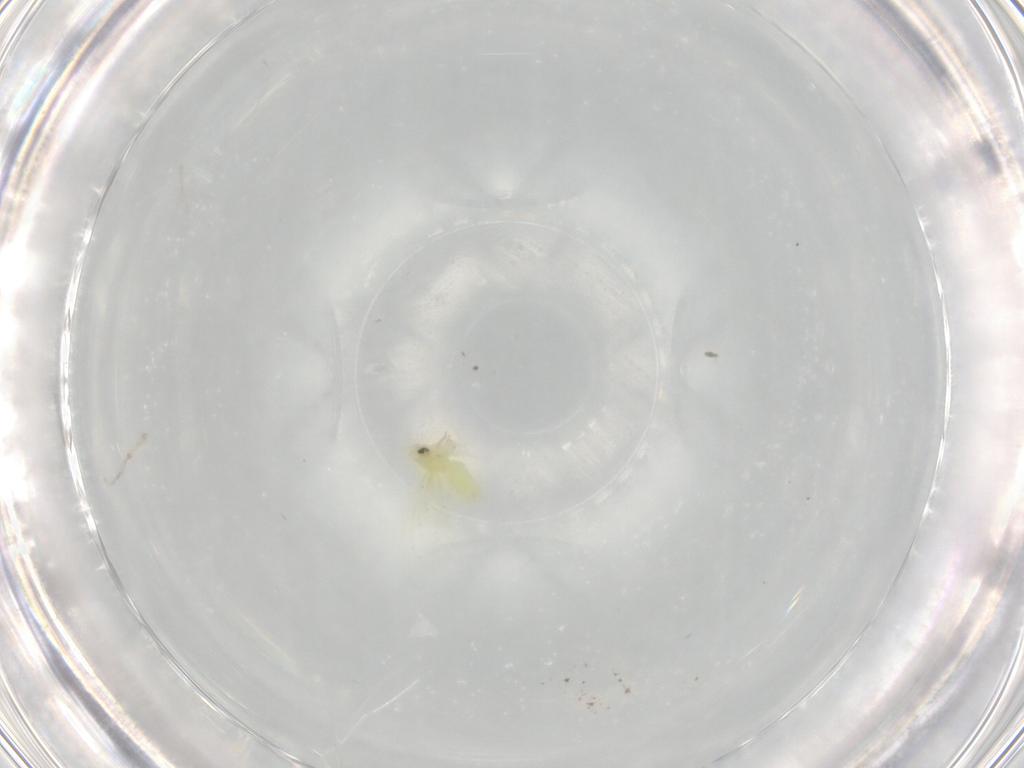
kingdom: Animalia
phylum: Arthropoda
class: Insecta
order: Hemiptera
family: Aleyrodidae
